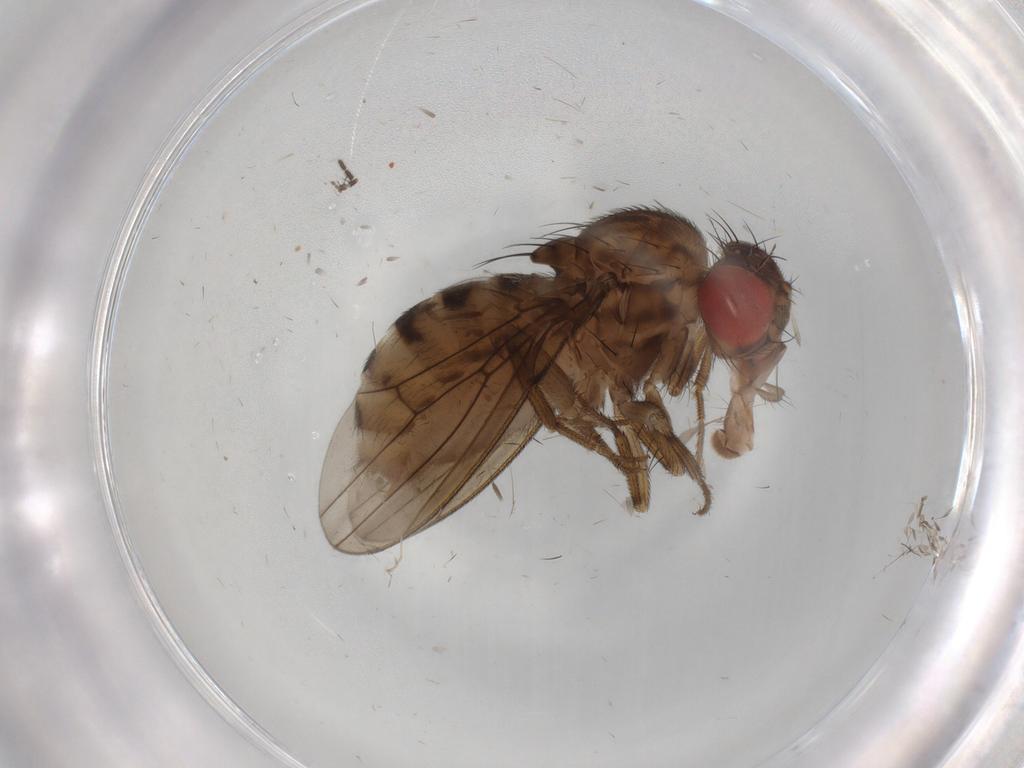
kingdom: Animalia
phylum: Arthropoda
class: Insecta
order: Diptera
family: Drosophilidae
